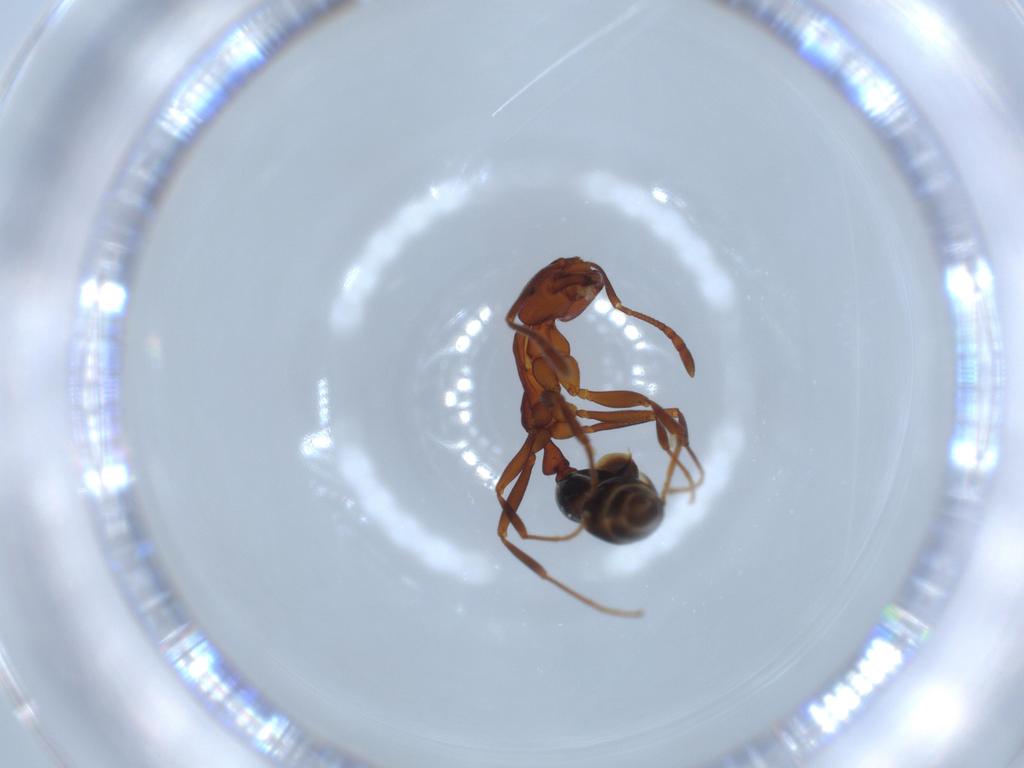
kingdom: Animalia
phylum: Arthropoda
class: Insecta
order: Hymenoptera
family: Formicidae
